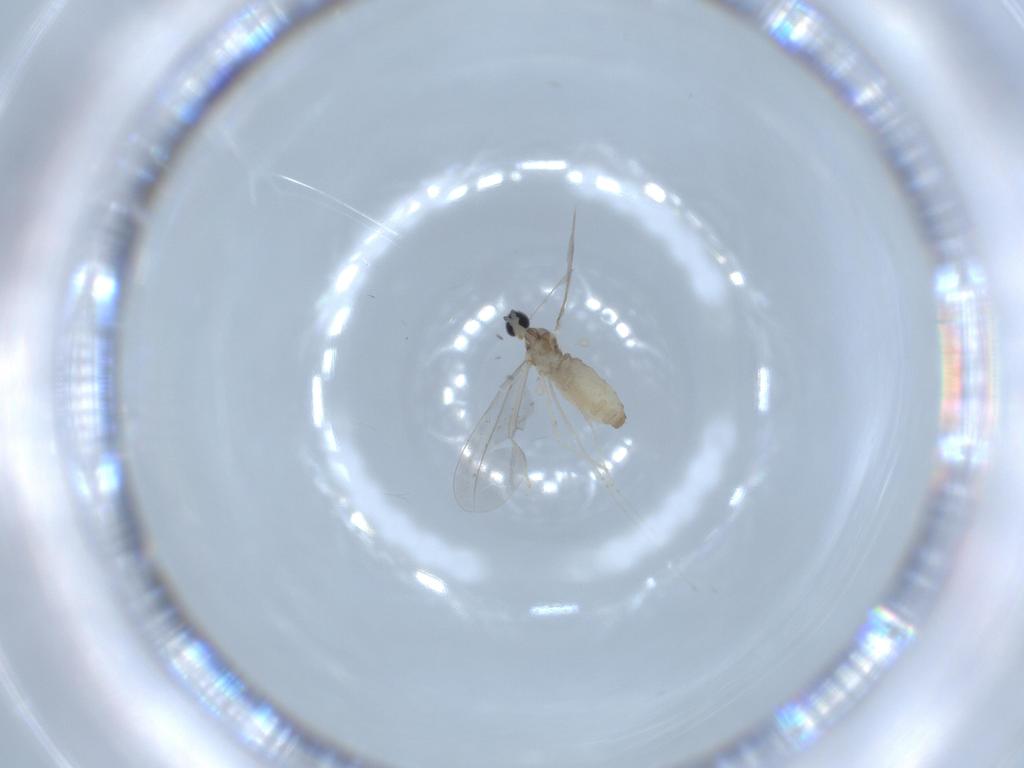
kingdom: Animalia
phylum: Arthropoda
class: Insecta
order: Diptera
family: Cecidomyiidae
